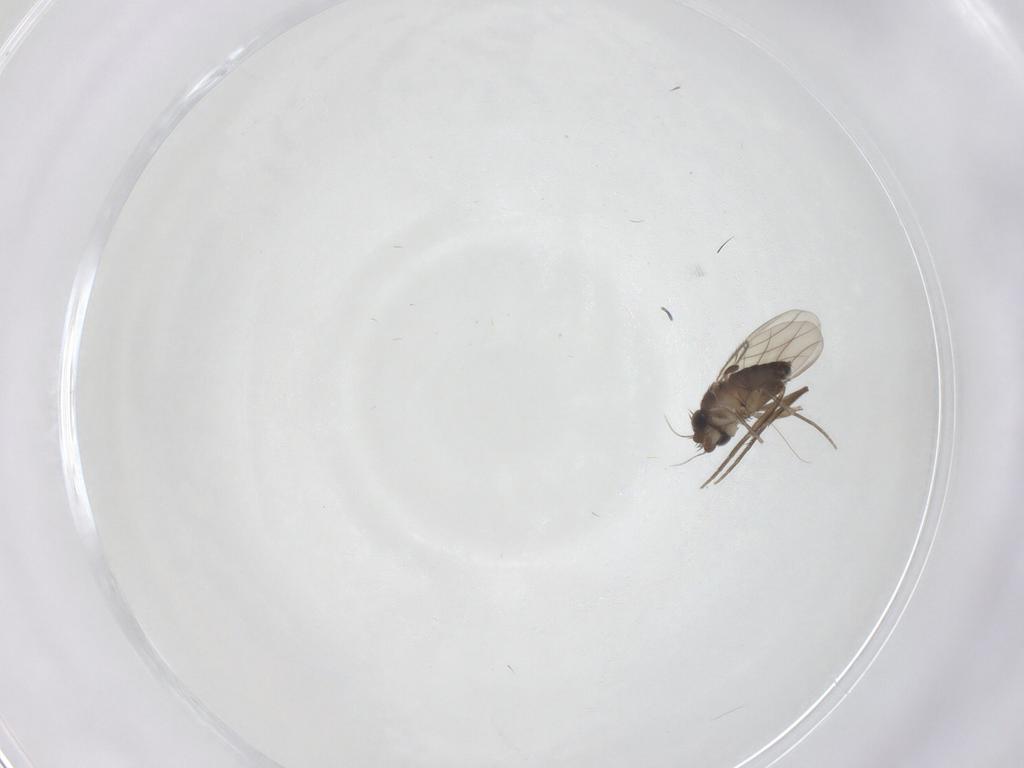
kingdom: Animalia
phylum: Arthropoda
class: Insecta
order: Diptera
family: Phoridae
